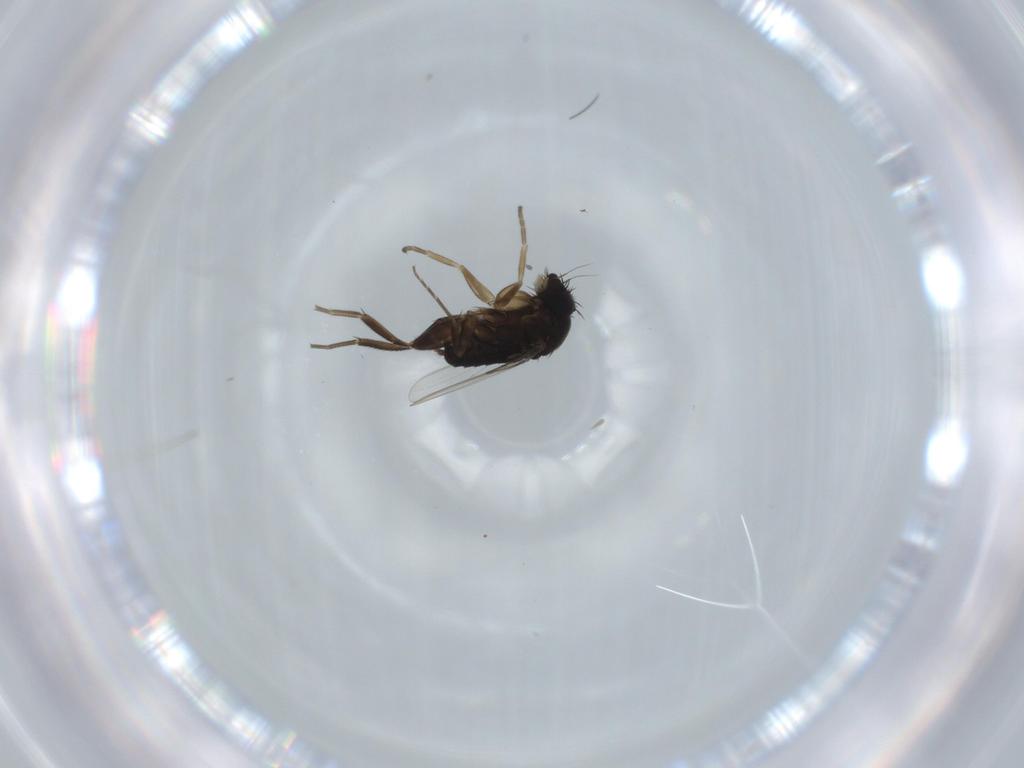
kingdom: Animalia
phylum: Arthropoda
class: Insecta
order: Diptera
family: Phoridae
